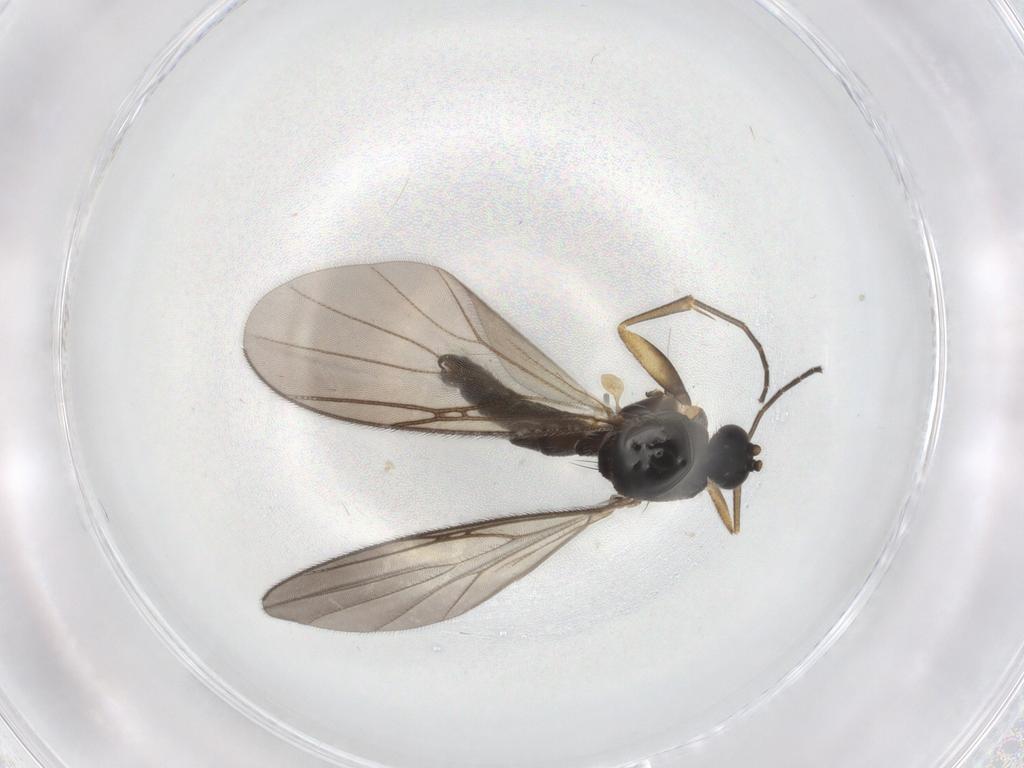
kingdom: Animalia
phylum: Arthropoda
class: Insecta
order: Diptera
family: Mycetophilidae
